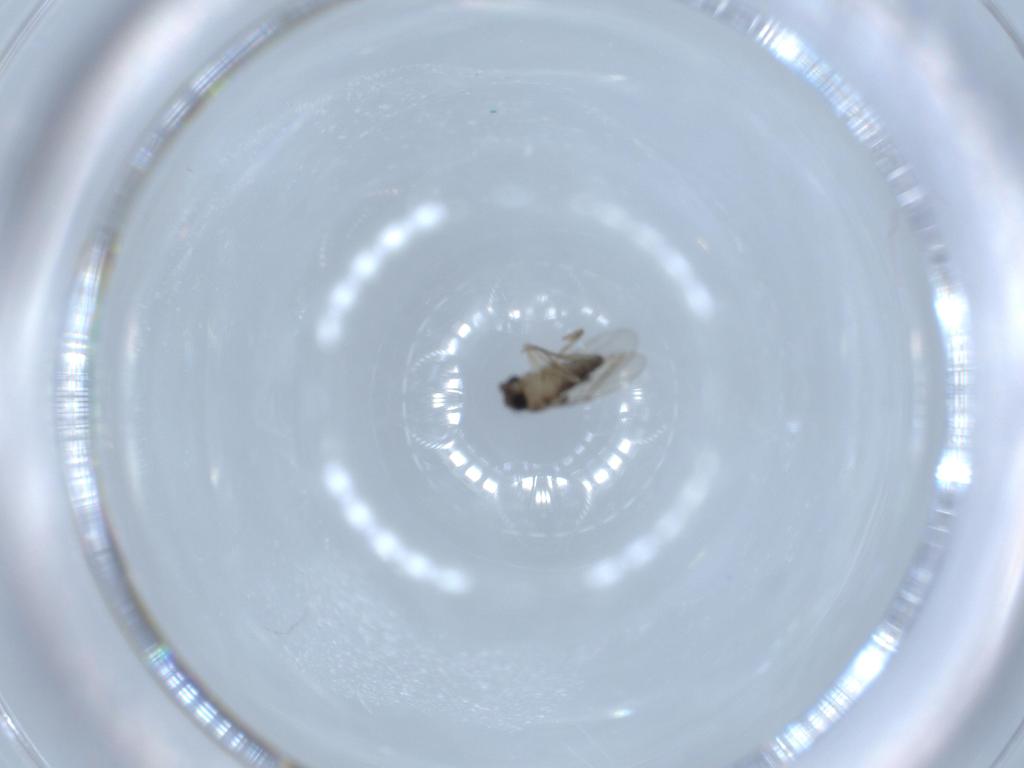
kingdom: Animalia
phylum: Arthropoda
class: Insecta
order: Diptera
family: Phoridae
